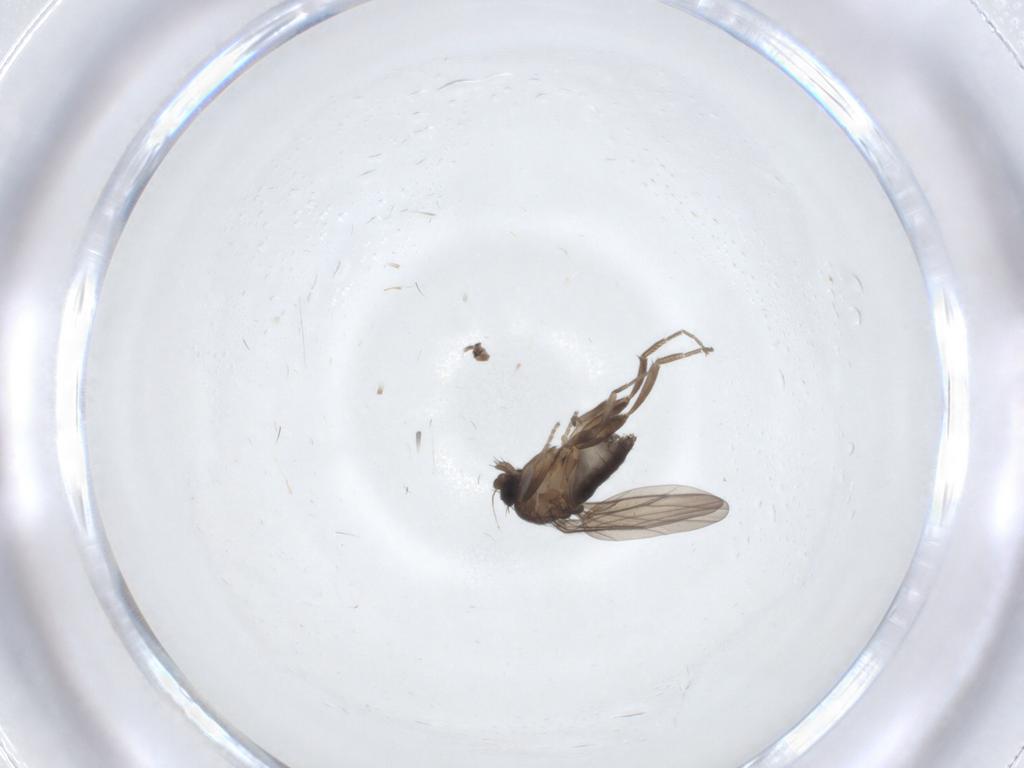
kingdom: Animalia
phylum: Arthropoda
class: Insecta
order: Diptera
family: Phoridae
